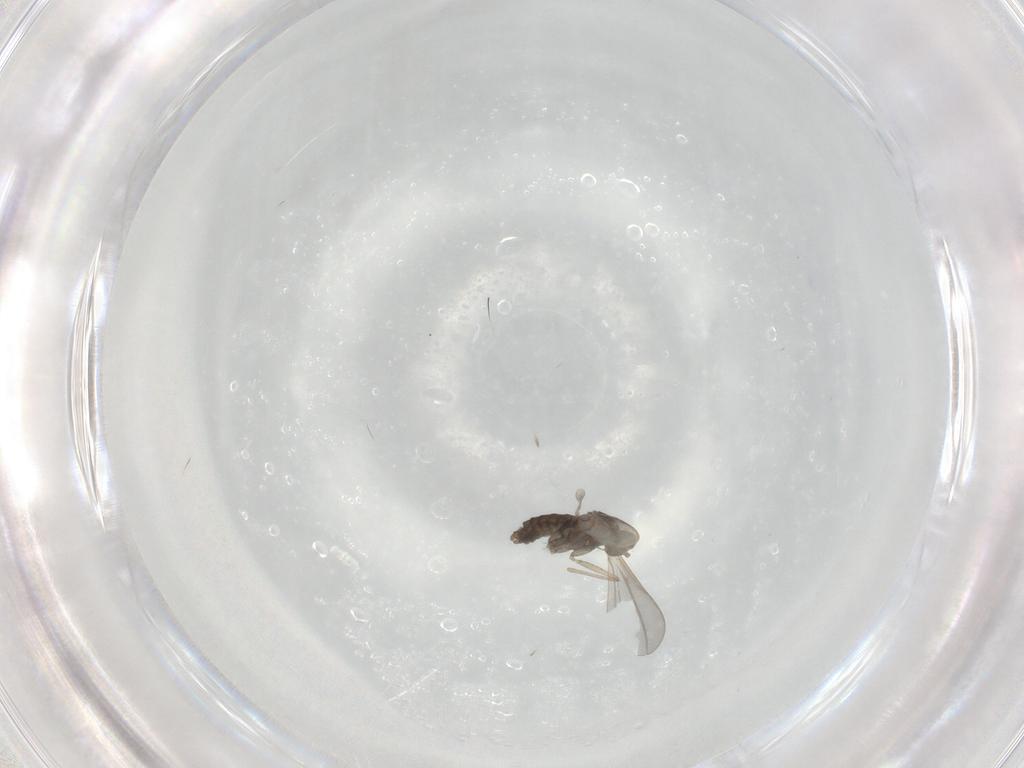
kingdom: Animalia
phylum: Arthropoda
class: Insecta
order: Diptera
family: Cecidomyiidae
